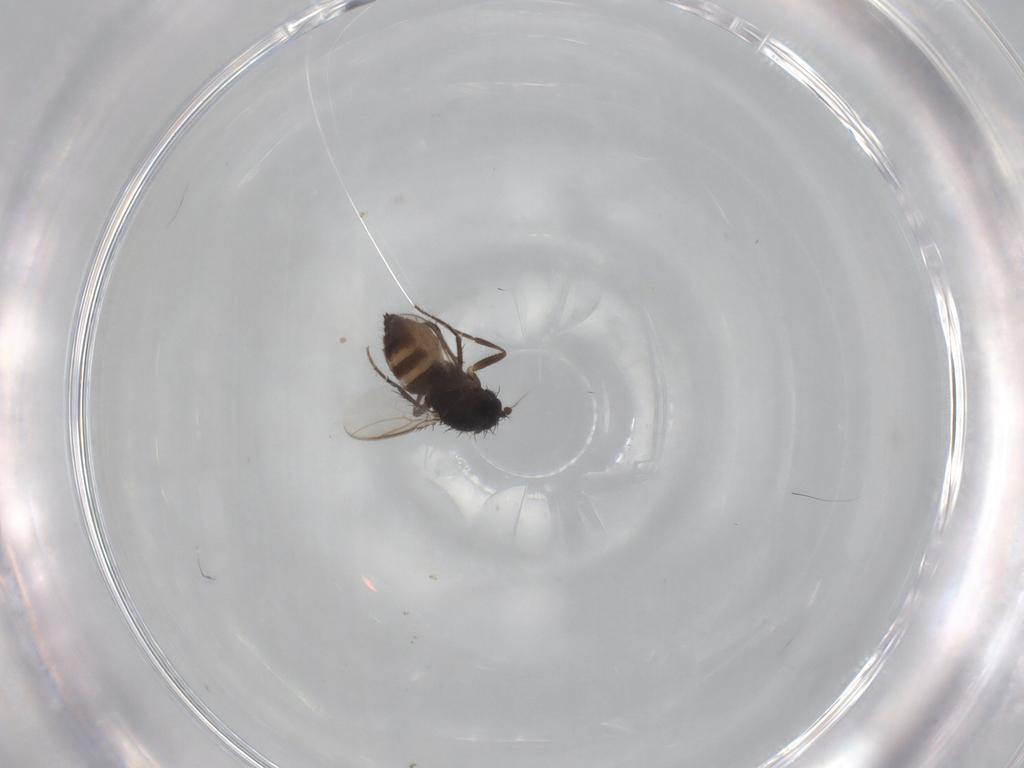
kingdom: Animalia
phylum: Arthropoda
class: Insecta
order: Diptera
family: Sphaeroceridae
